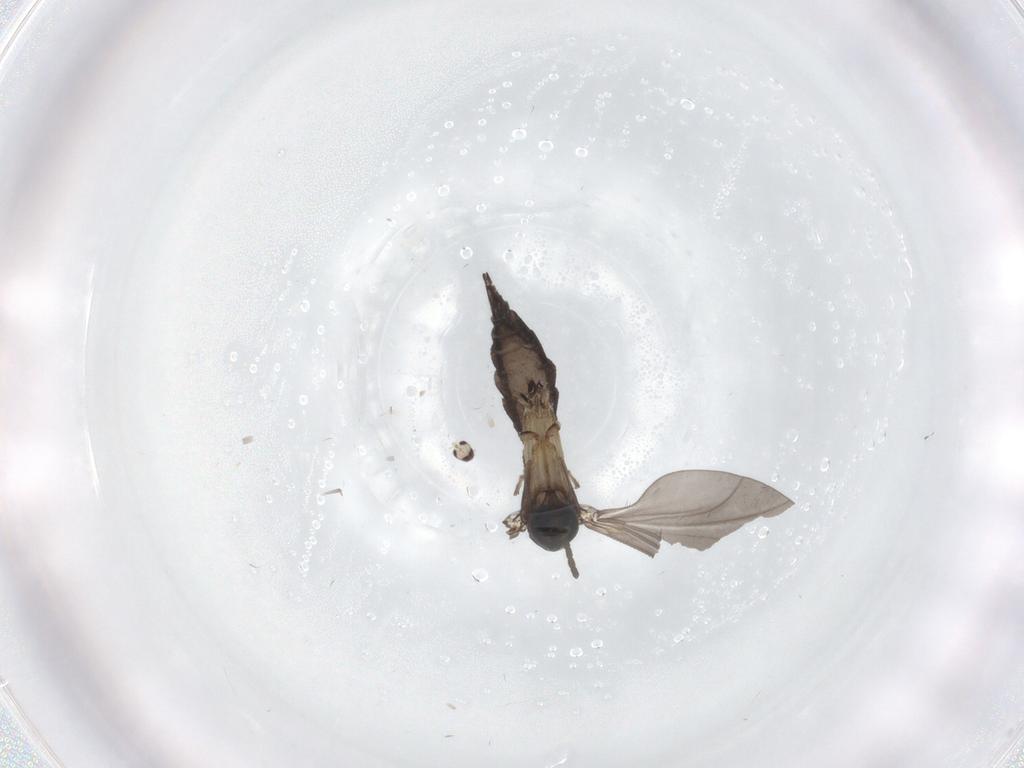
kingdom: Animalia
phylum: Arthropoda
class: Insecta
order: Diptera
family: Sciaridae
